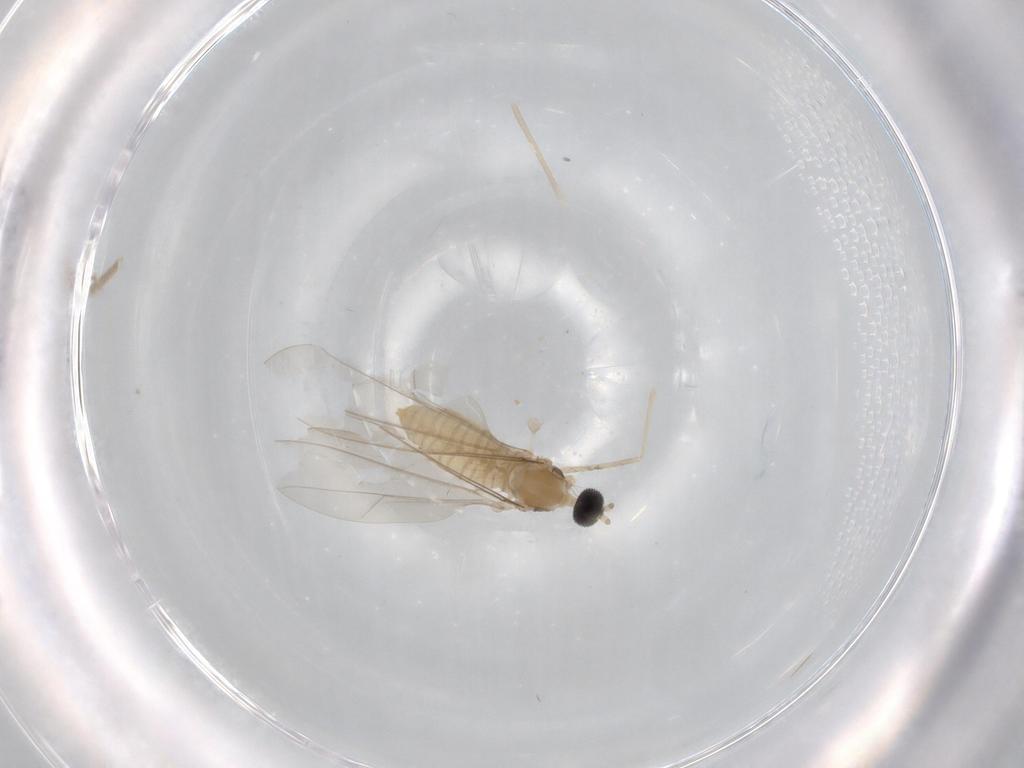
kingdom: Animalia
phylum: Arthropoda
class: Insecta
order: Diptera
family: Cecidomyiidae
